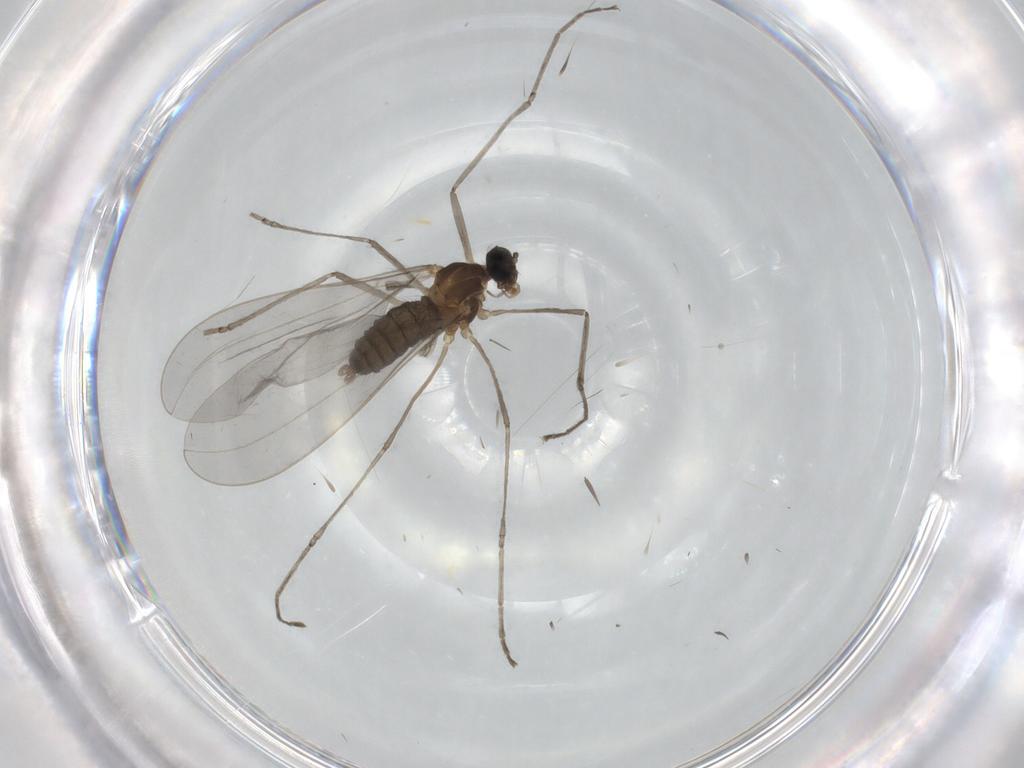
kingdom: Animalia
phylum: Arthropoda
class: Insecta
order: Diptera
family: Cecidomyiidae
